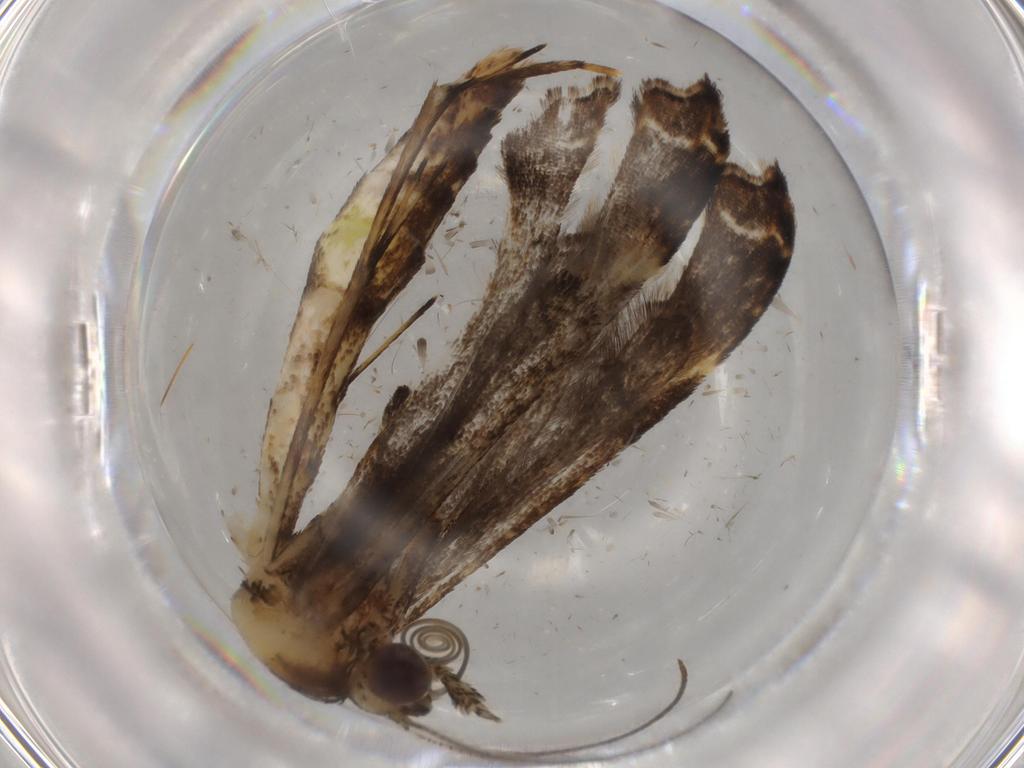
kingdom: Animalia
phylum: Arthropoda
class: Insecta
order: Lepidoptera
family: Pterophoridae
